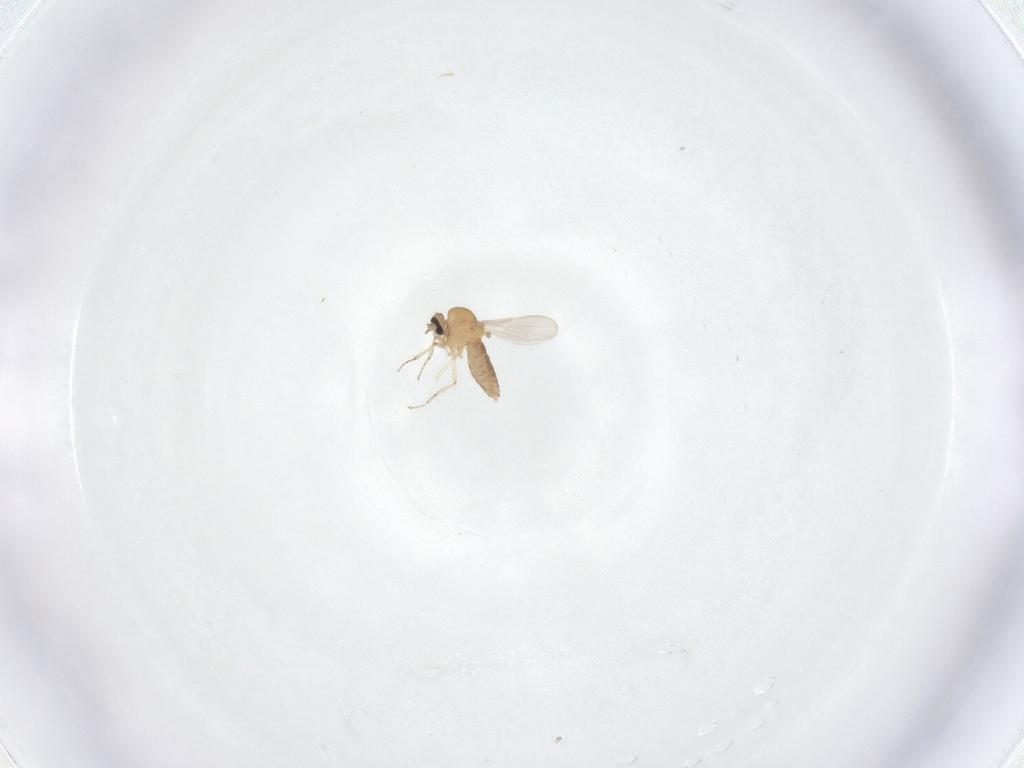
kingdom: Animalia
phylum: Arthropoda
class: Insecta
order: Diptera
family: Ceratopogonidae
